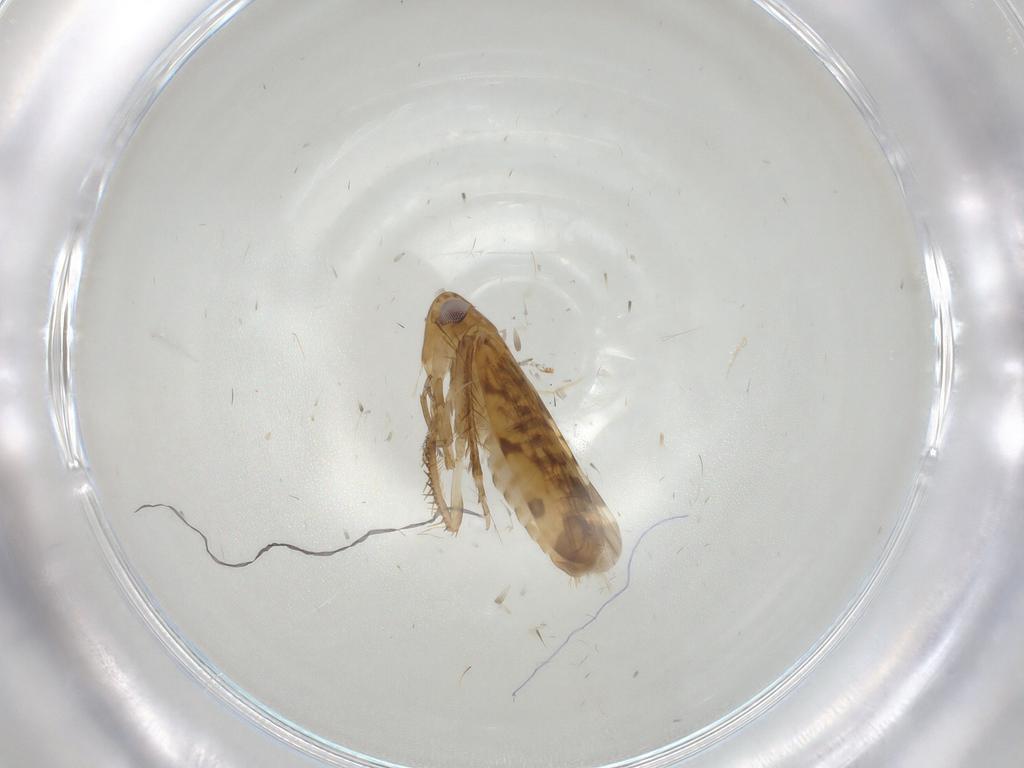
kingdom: Animalia
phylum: Arthropoda
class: Insecta
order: Hemiptera
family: Cicadellidae
